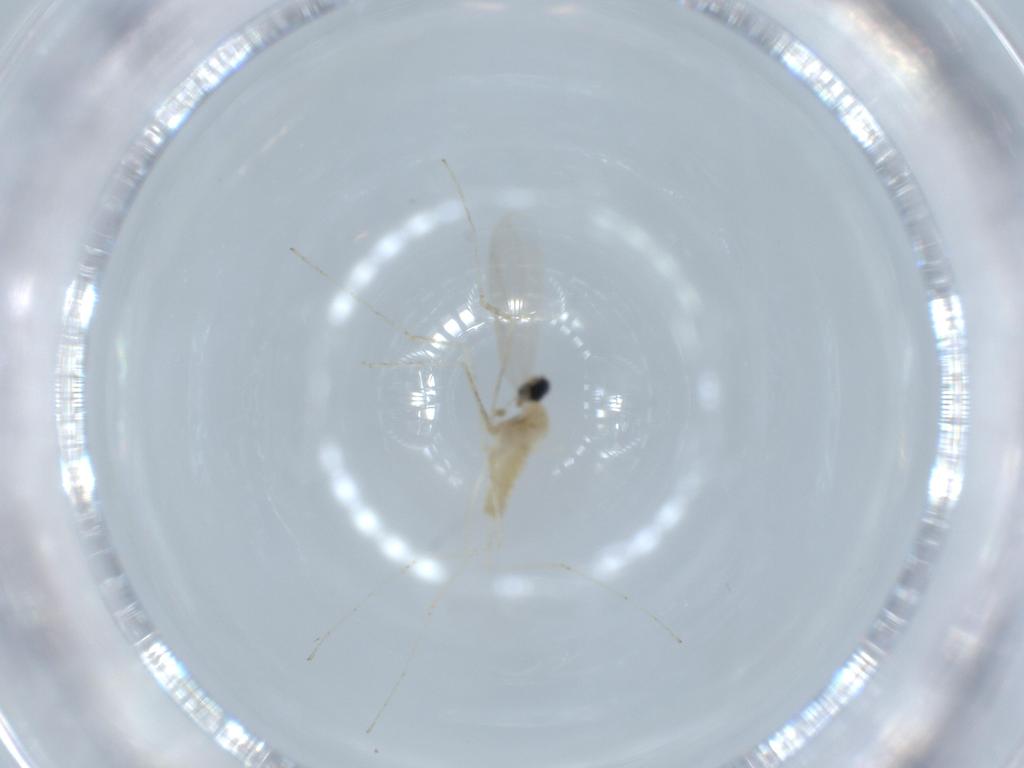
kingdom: Animalia
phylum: Arthropoda
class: Insecta
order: Diptera
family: Cecidomyiidae
